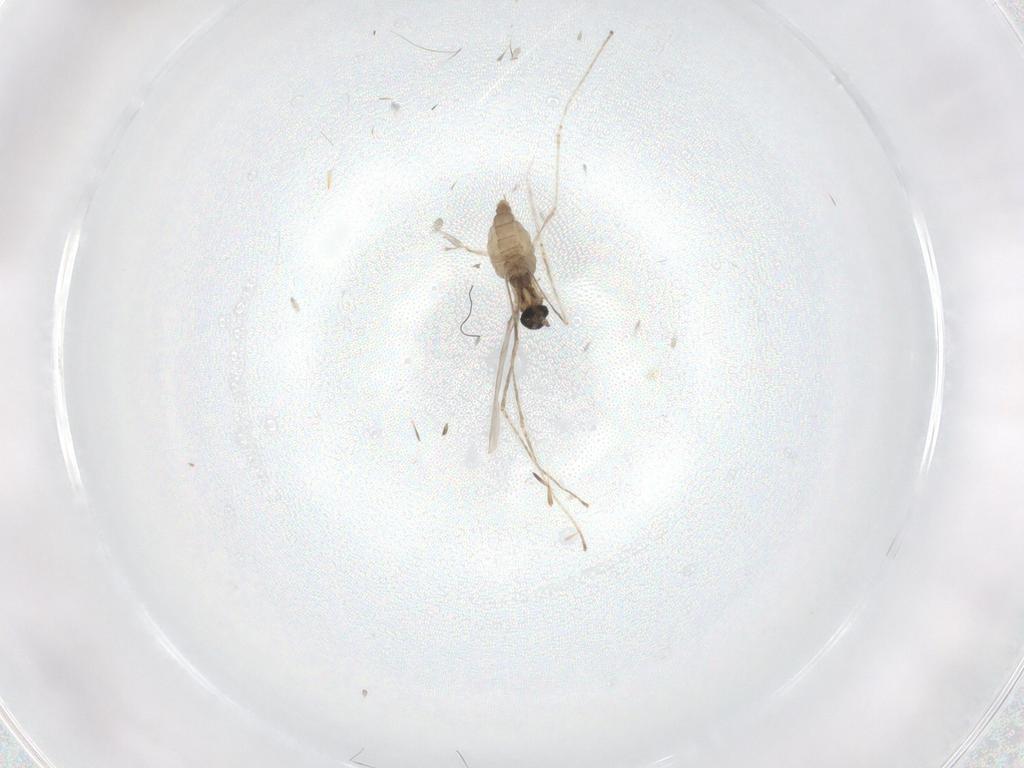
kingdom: Animalia
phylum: Arthropoda
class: Insecta
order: Diptera
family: Cecidomyiidae
